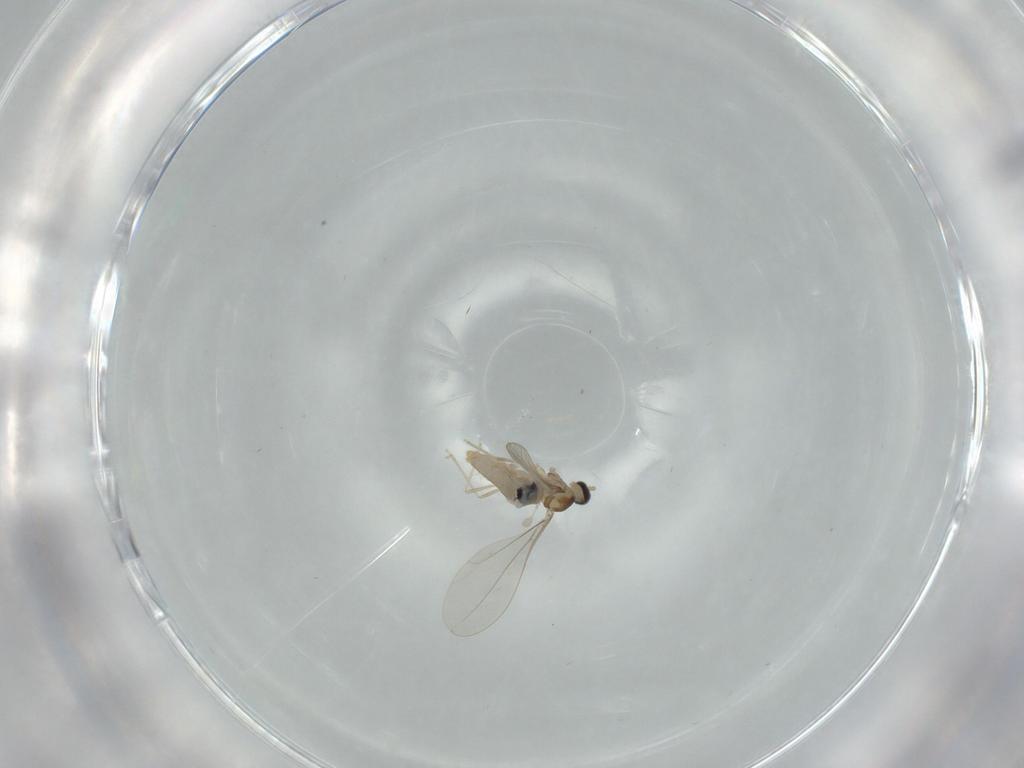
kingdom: Animalia
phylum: Arthropoda
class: Insecta
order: Diptera
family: Cecidomyiidae
